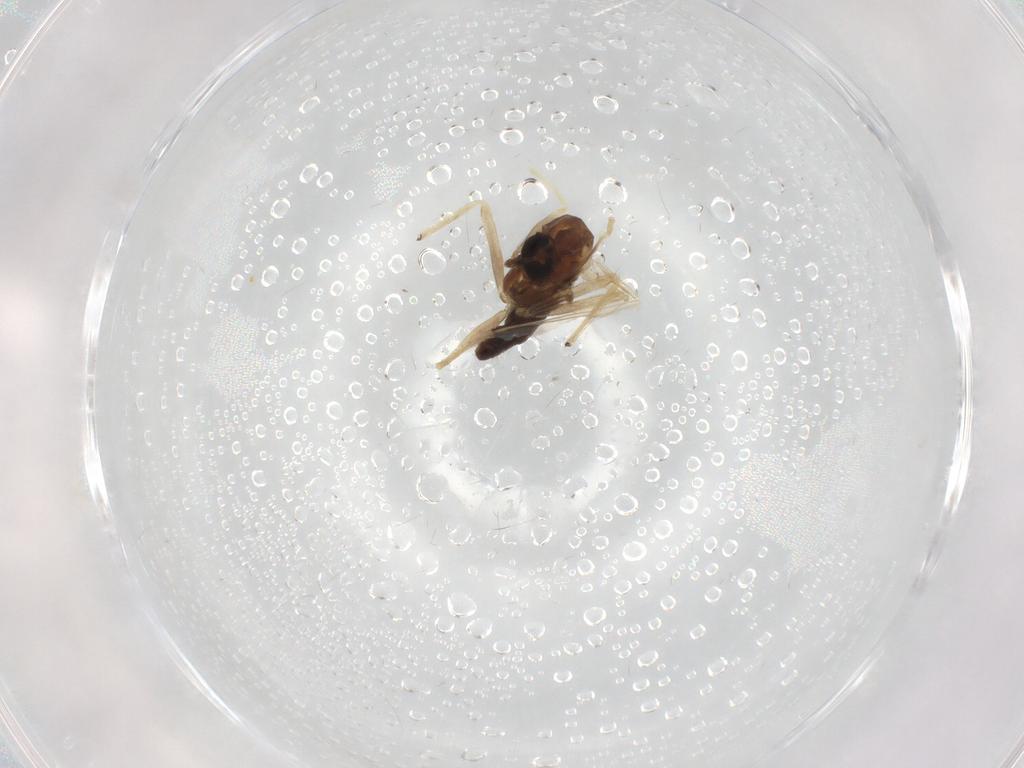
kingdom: Animalia
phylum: Arthropoda
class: Insecta
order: Diptera
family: Chironomidae
